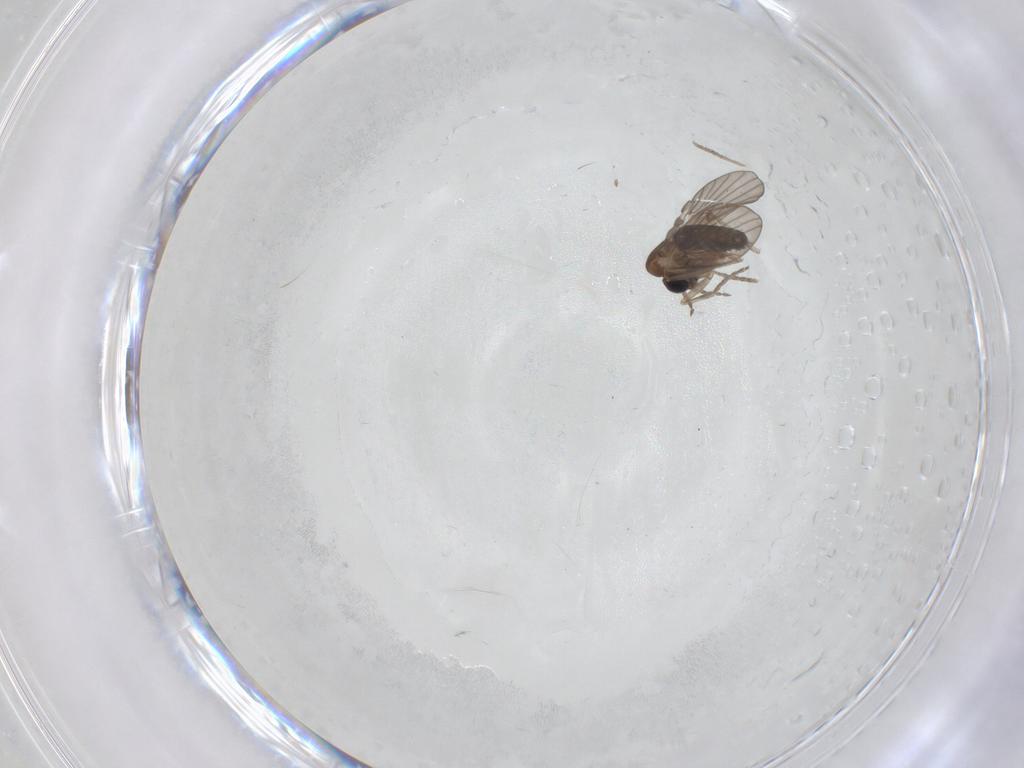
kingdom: Animalia
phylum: Arthropoda
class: Insecta
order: Diptera
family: Psychodidae
